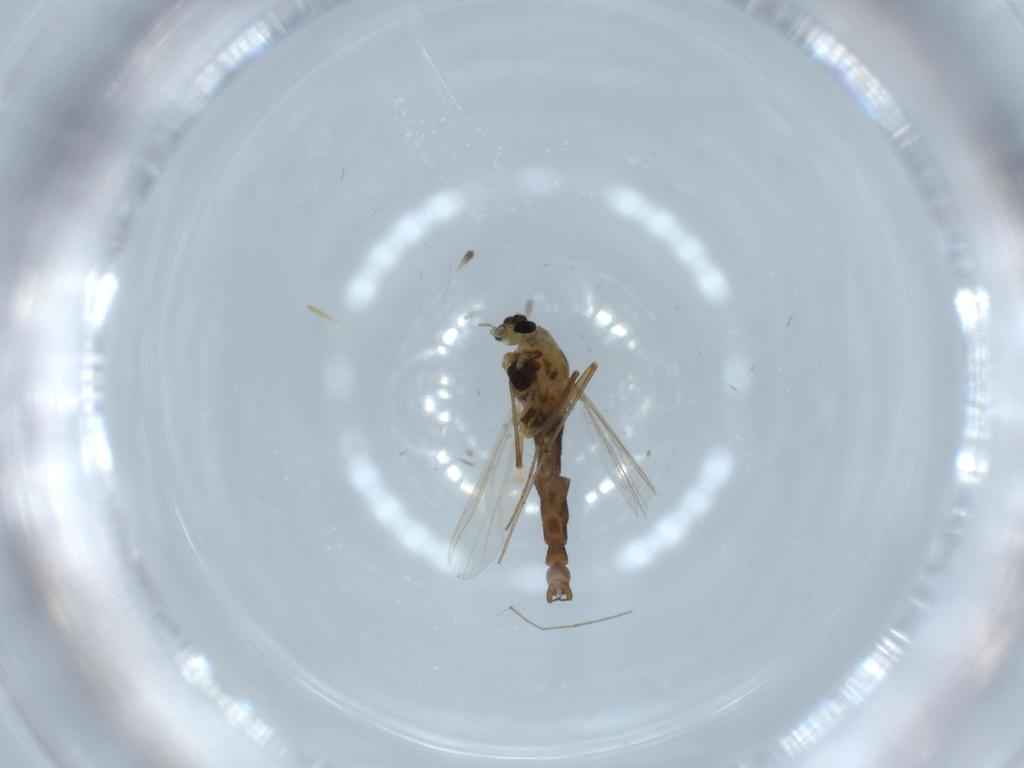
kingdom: Animalia
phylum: Arthropoda
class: Insecta
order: Diptera
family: Chironomidae
